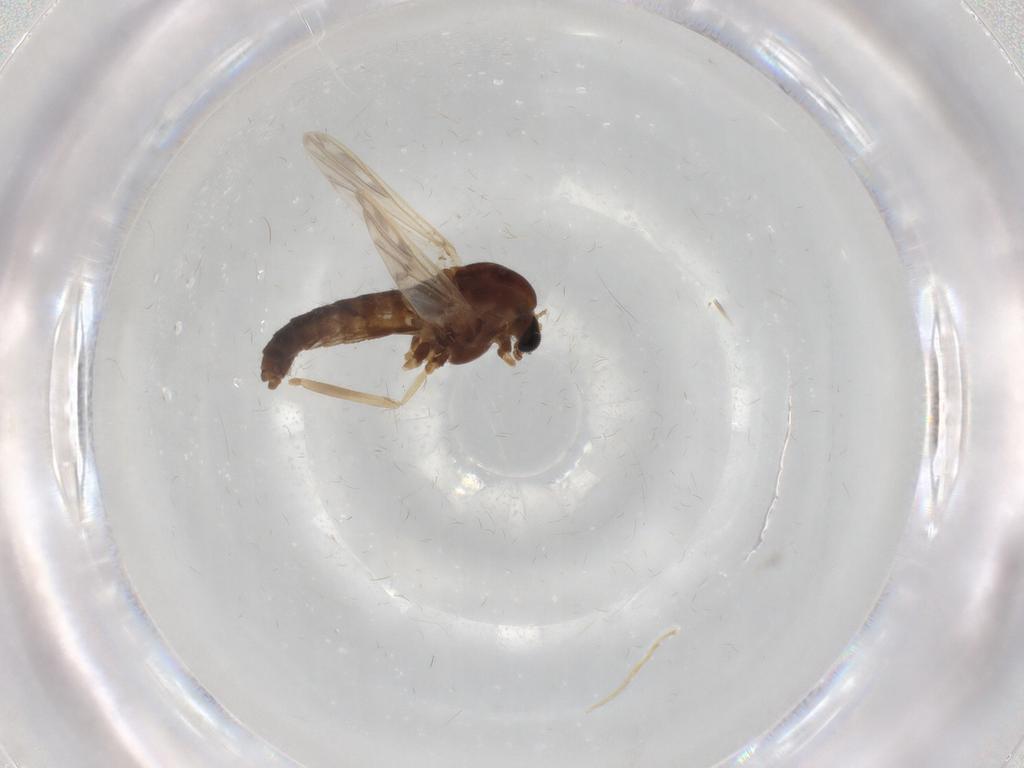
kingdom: Animalia
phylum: Arthropoda
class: Insecta
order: Diptera
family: Chironomidae
